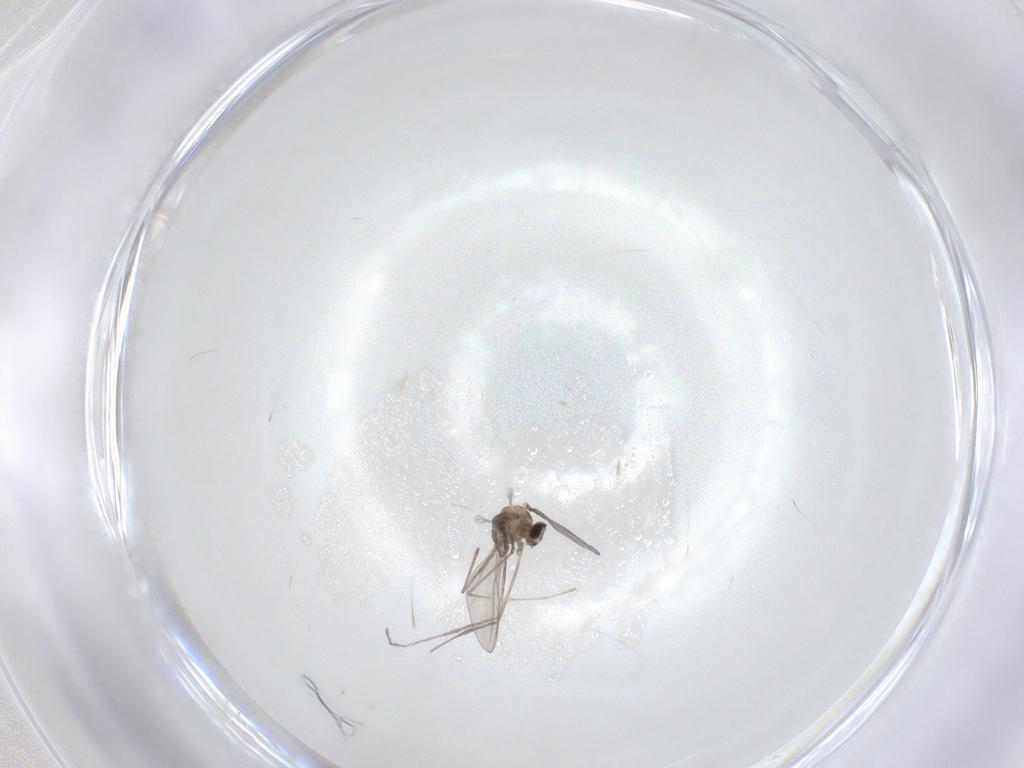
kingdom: Animalia
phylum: Arthropoda
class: Insecta
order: Diptera
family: Cecidomyiidae
